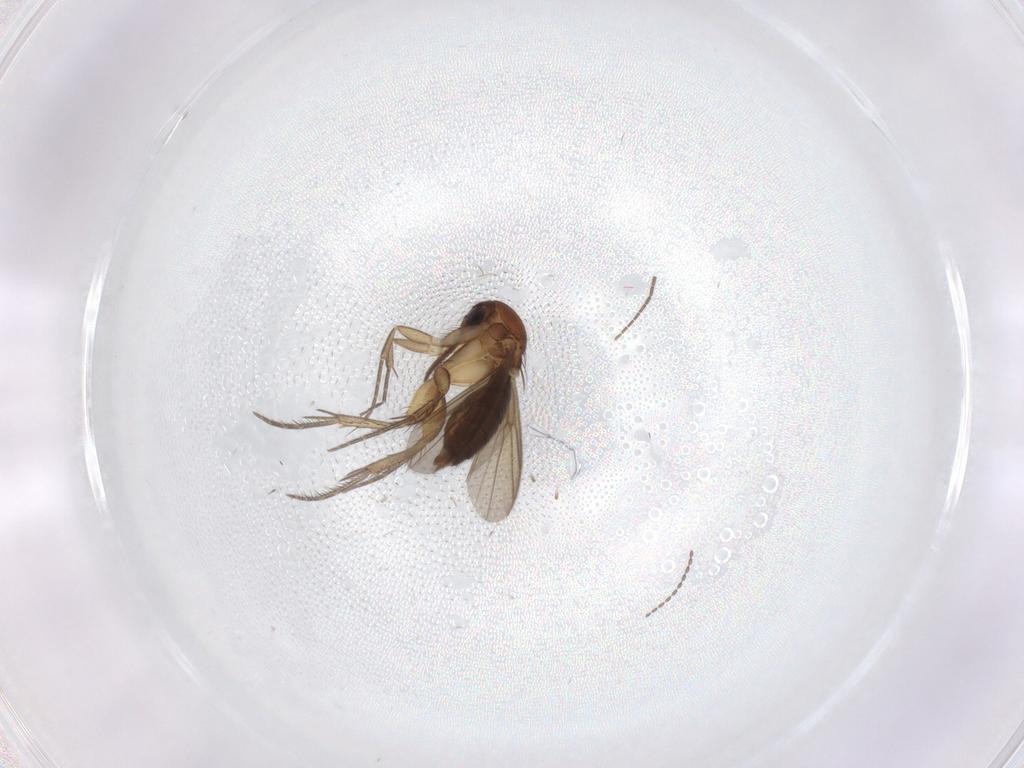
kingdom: Animalia
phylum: Arthropoda
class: Insecta
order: Diptera
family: Mycetophilidae
